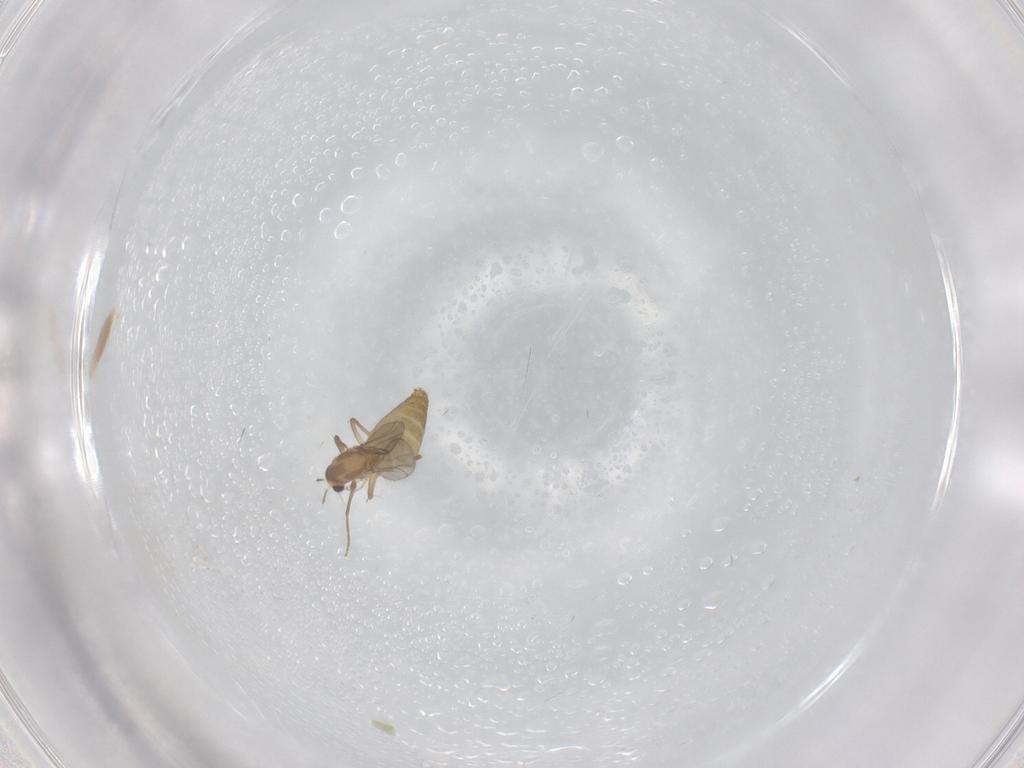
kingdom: Animalia
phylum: Arthropoda
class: Insecta
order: Diptera
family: Chironomidae
